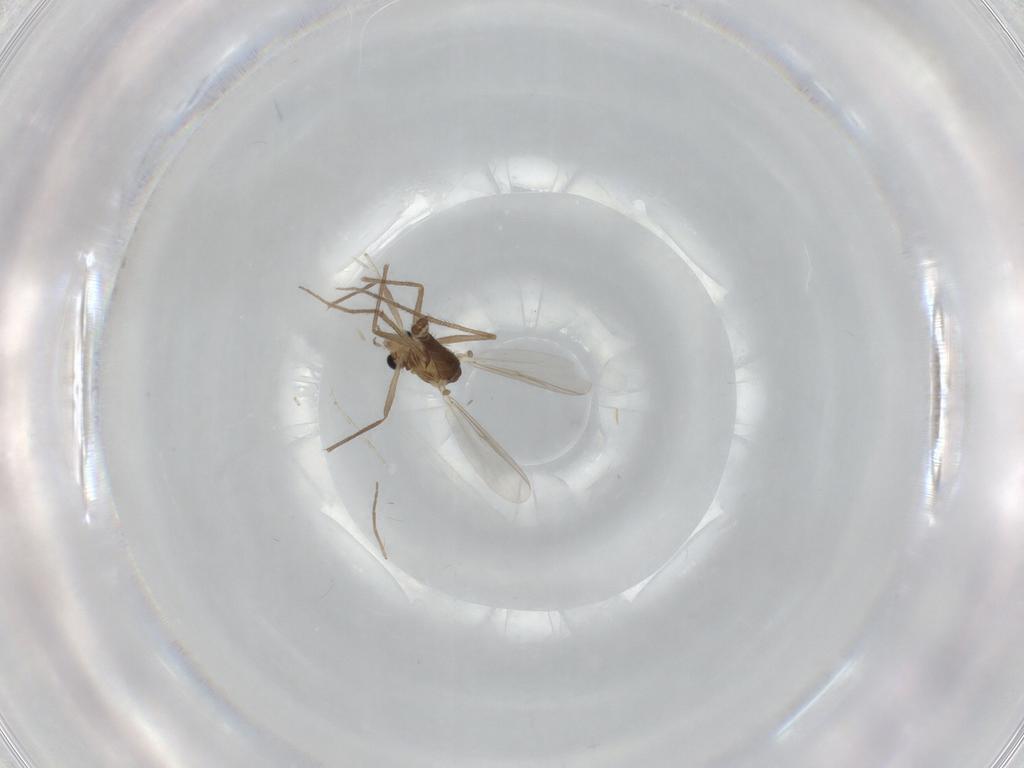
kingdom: Animalia
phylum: Arthropoda
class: Insecta
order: Diptera
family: Chironomidae
